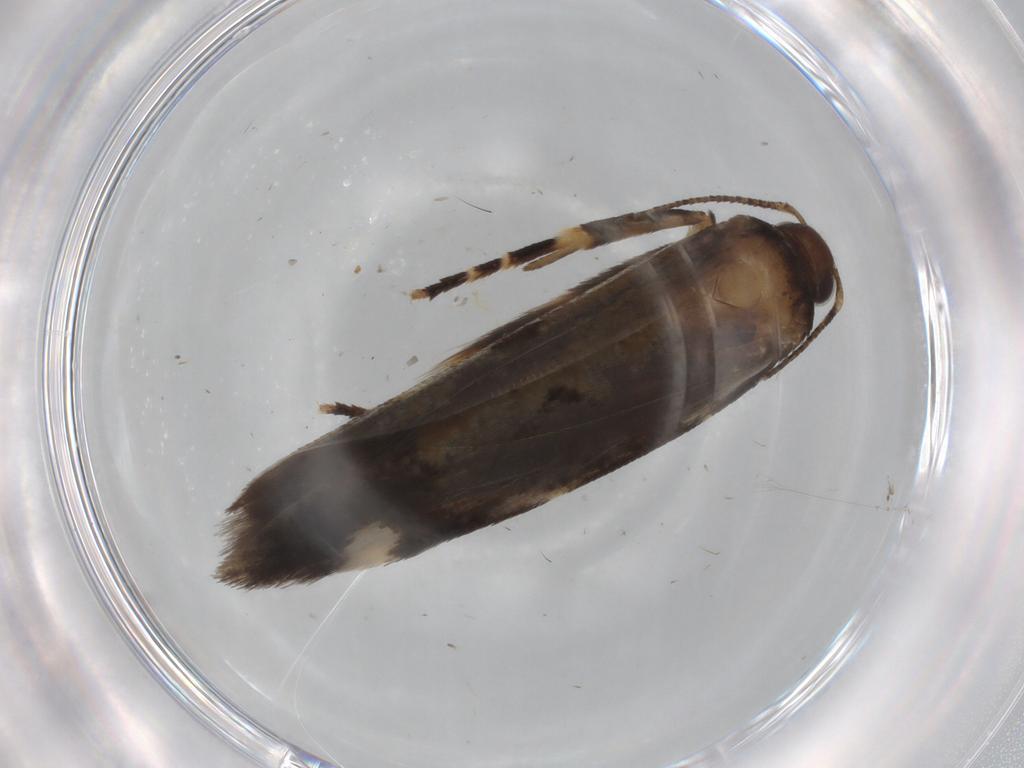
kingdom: Animalia
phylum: Arthropoda
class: Insecta
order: Lepidoptera
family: Gelechiidae
